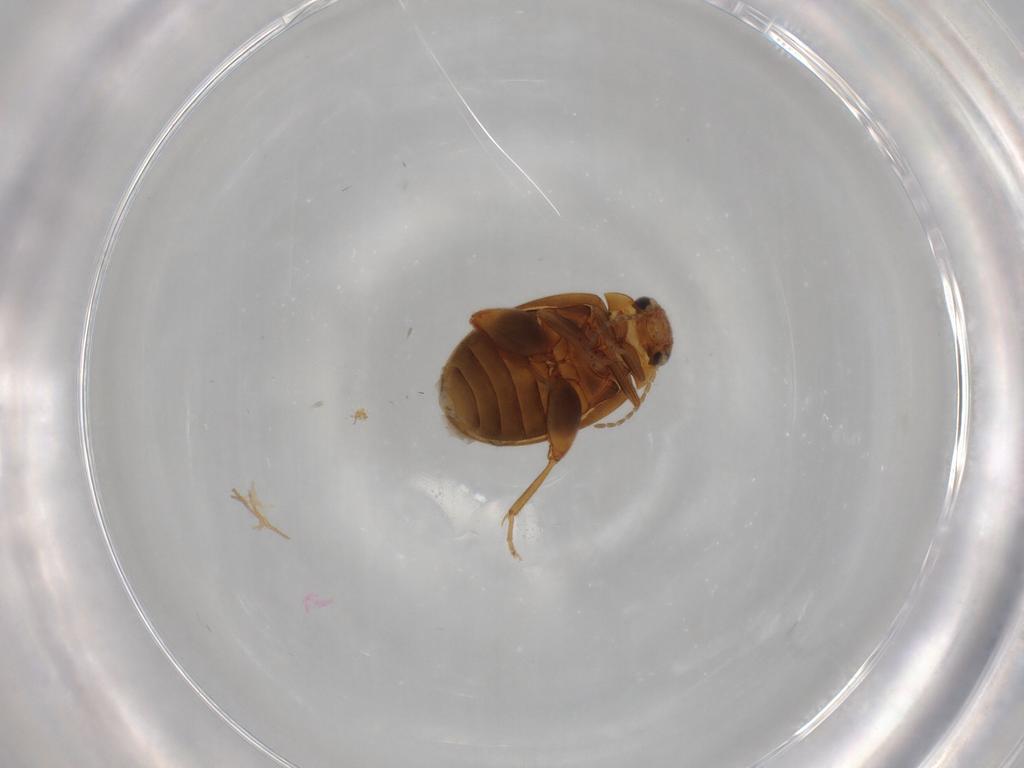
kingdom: Animalia
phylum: Arthropoda
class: Insecta
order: Coleoptera
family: Scirtidae
